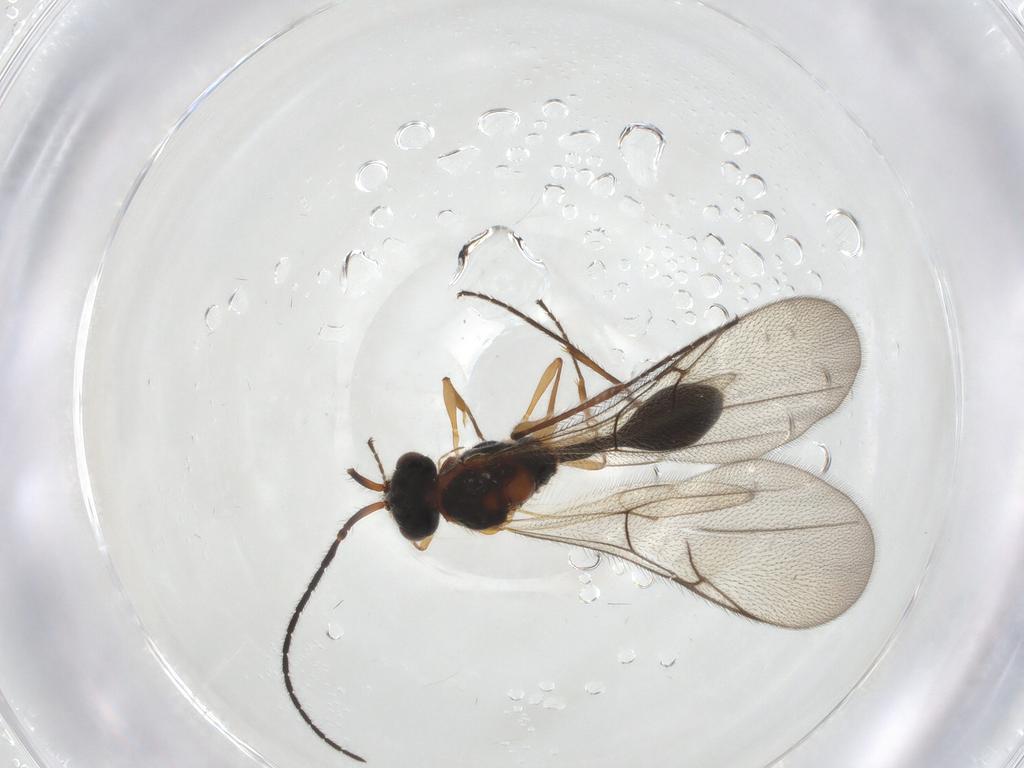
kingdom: Animalia
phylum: Arthropoda
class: Insecta
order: Hymenoptera
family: Diapriidae
